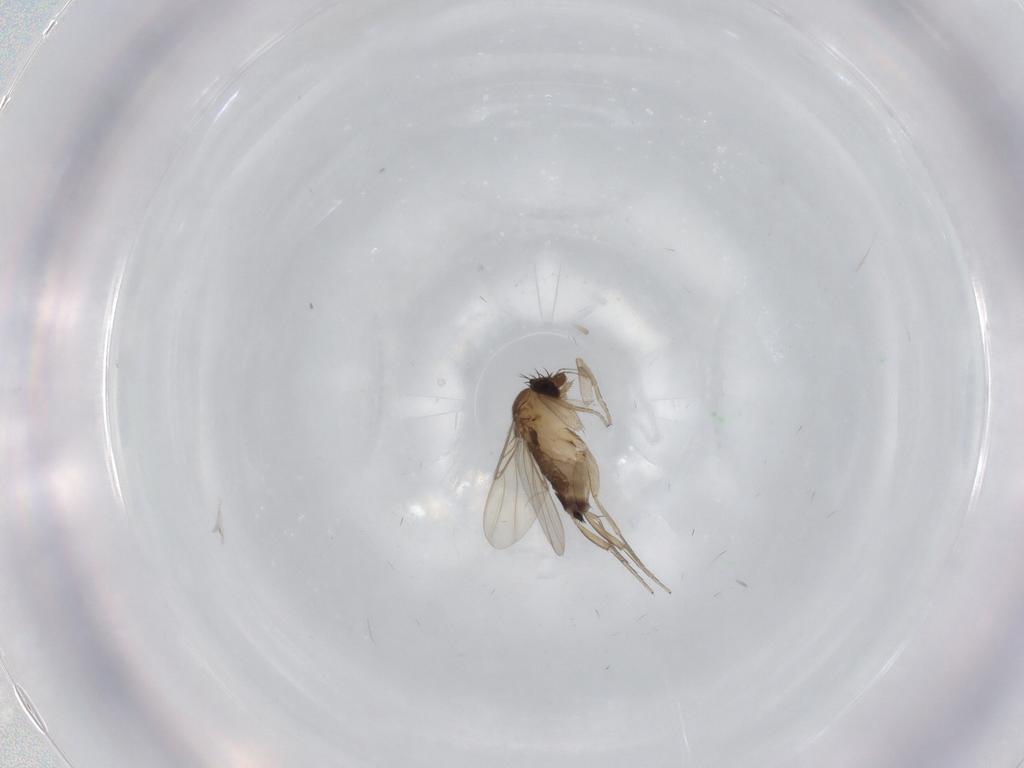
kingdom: Animalia
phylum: Arthropoda
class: Insecta
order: Diptera
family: Phoridae
